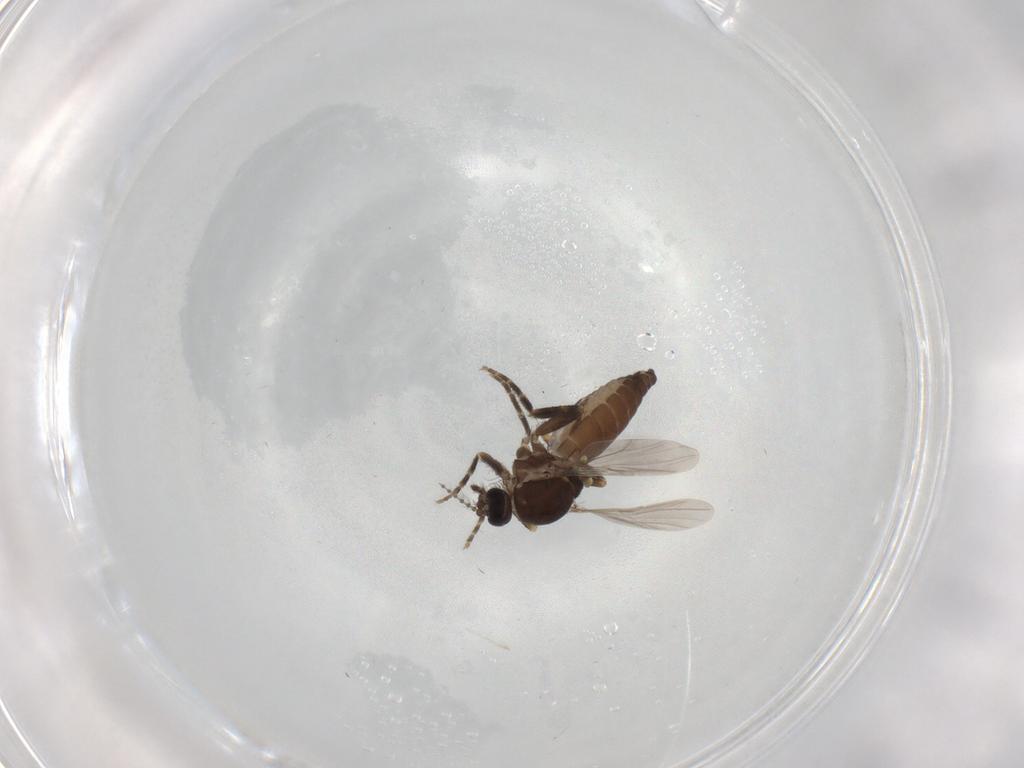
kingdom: Animalia
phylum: Arthropoda
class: Insecta
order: Diptera
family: Ceratopogonidae
